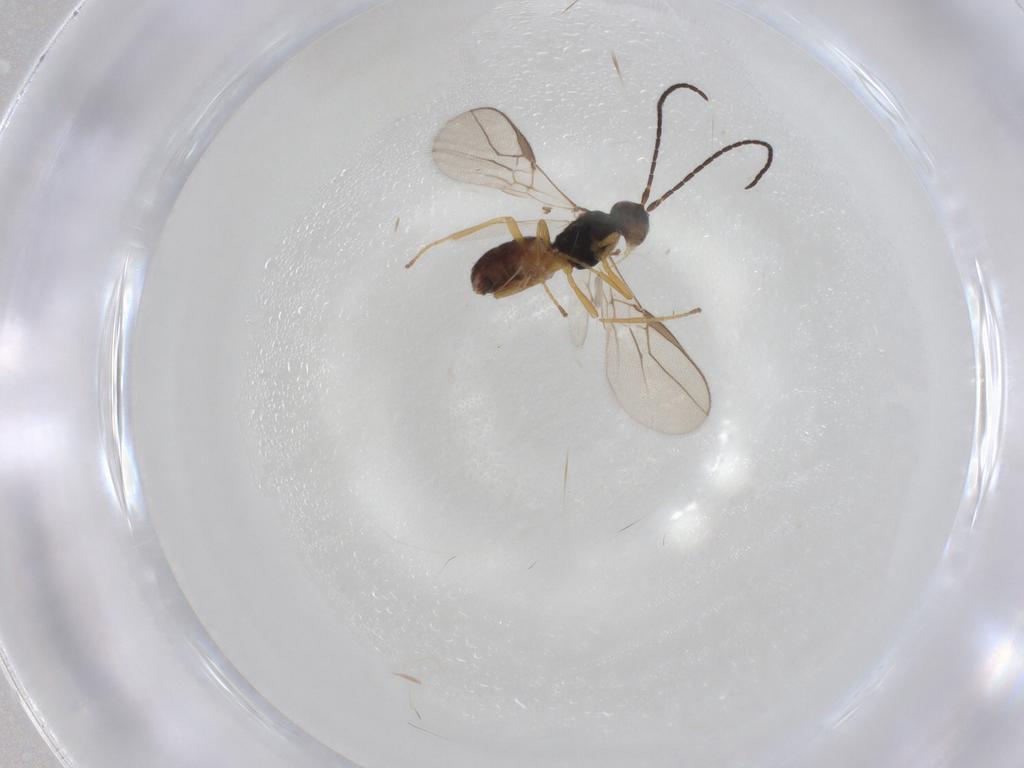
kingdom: Animalia
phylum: Arthropoda
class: Insecta
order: Hymenoptera
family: Braconidae
